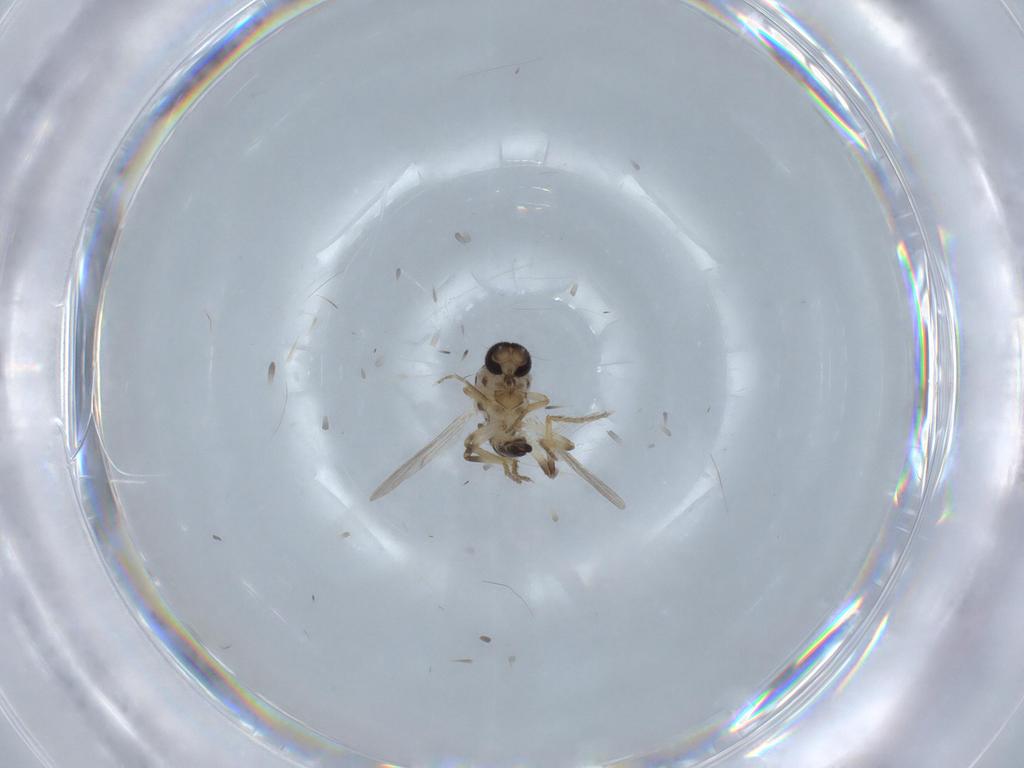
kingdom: Animalia
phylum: Arthropoda
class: Insecta
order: Diptera
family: Ceratopogonidae
